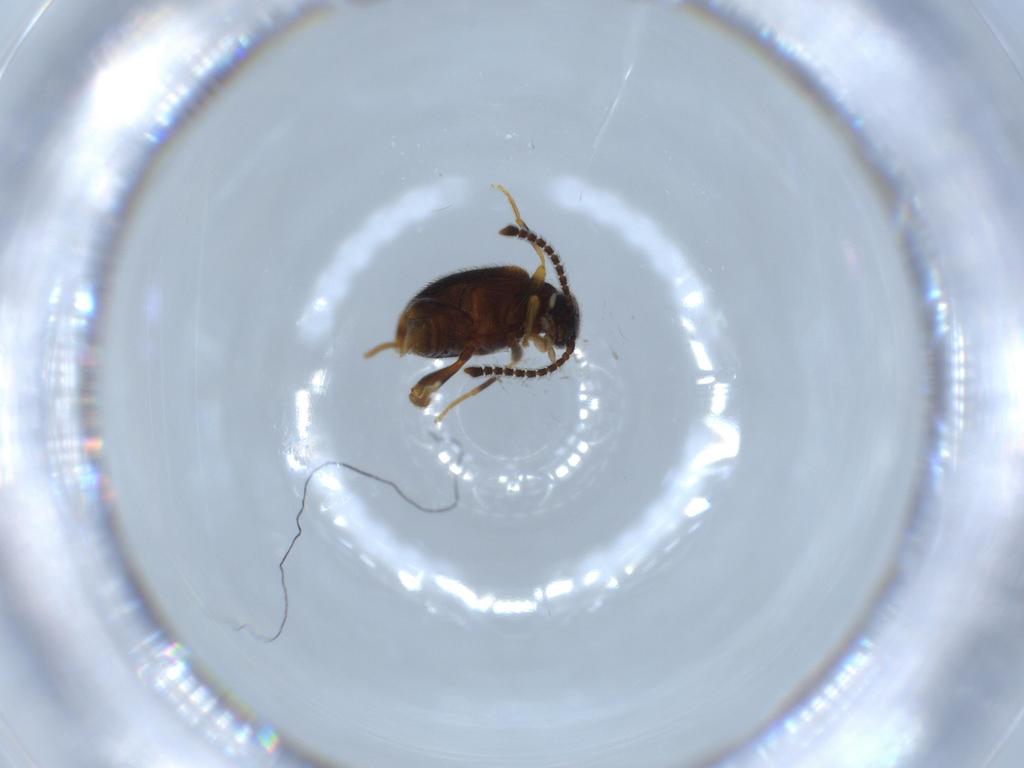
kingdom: Animalia
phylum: Arthropoda
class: Insecta
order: Coleoptera
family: Aderidae
